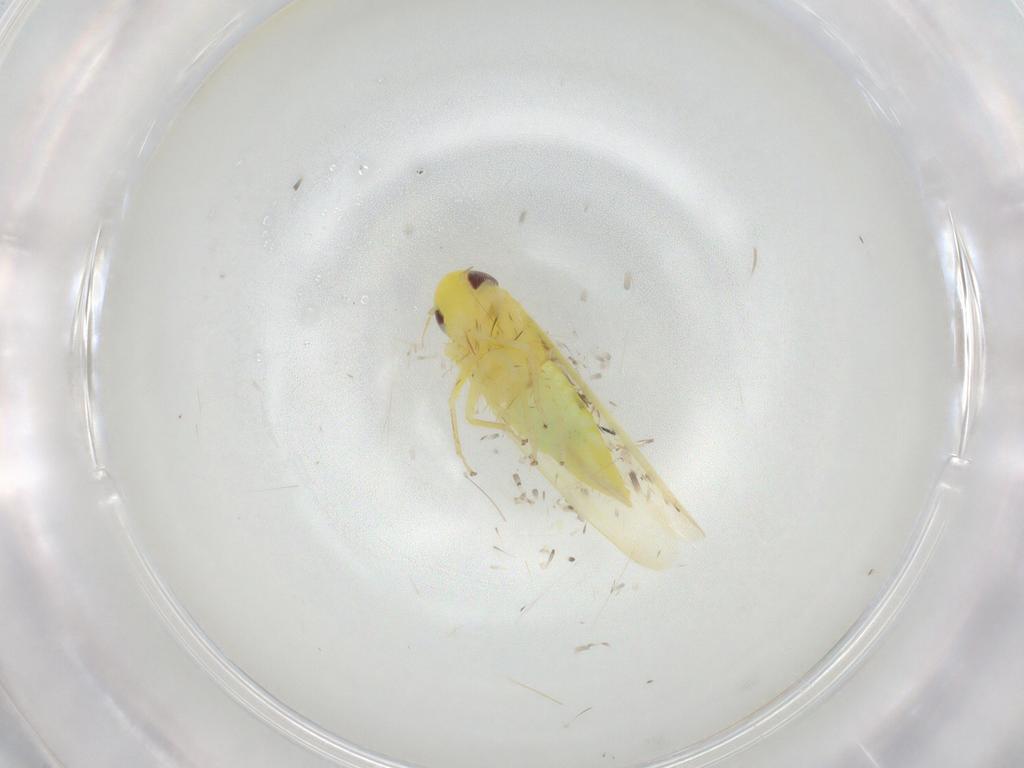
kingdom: Animalia
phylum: Arthropoda
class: Insecta
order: Hemiptera
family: Cicadellidae
